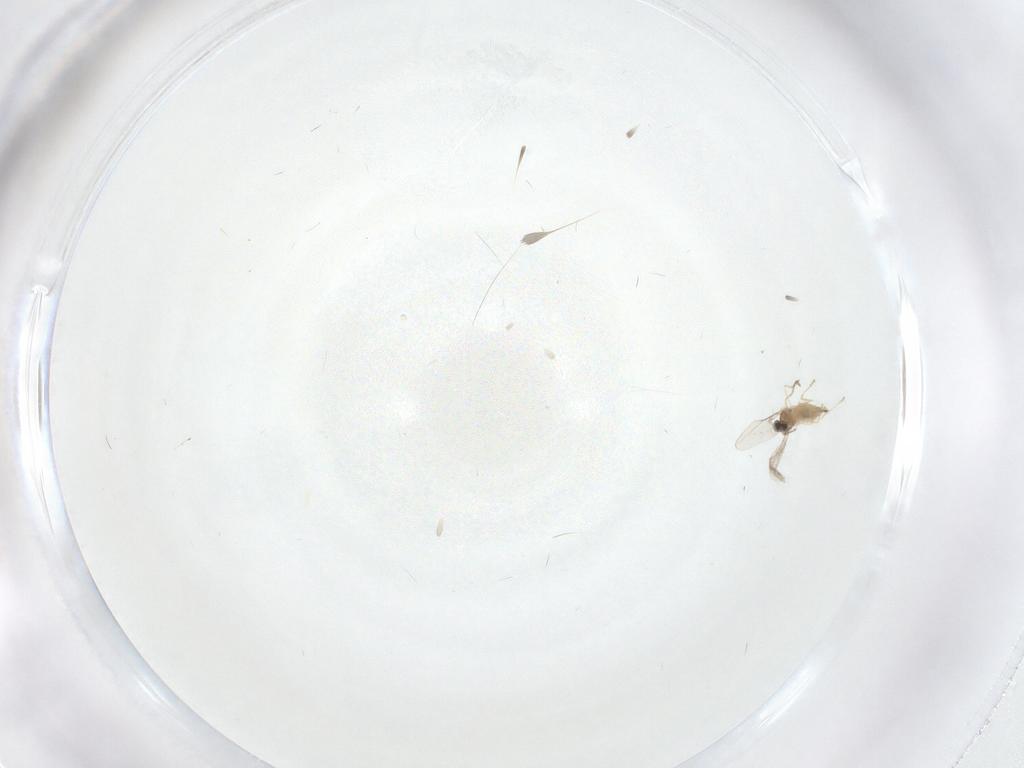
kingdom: Animalia
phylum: Arthropoda
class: Insecta
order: Diptera
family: Cecidomyiidae
